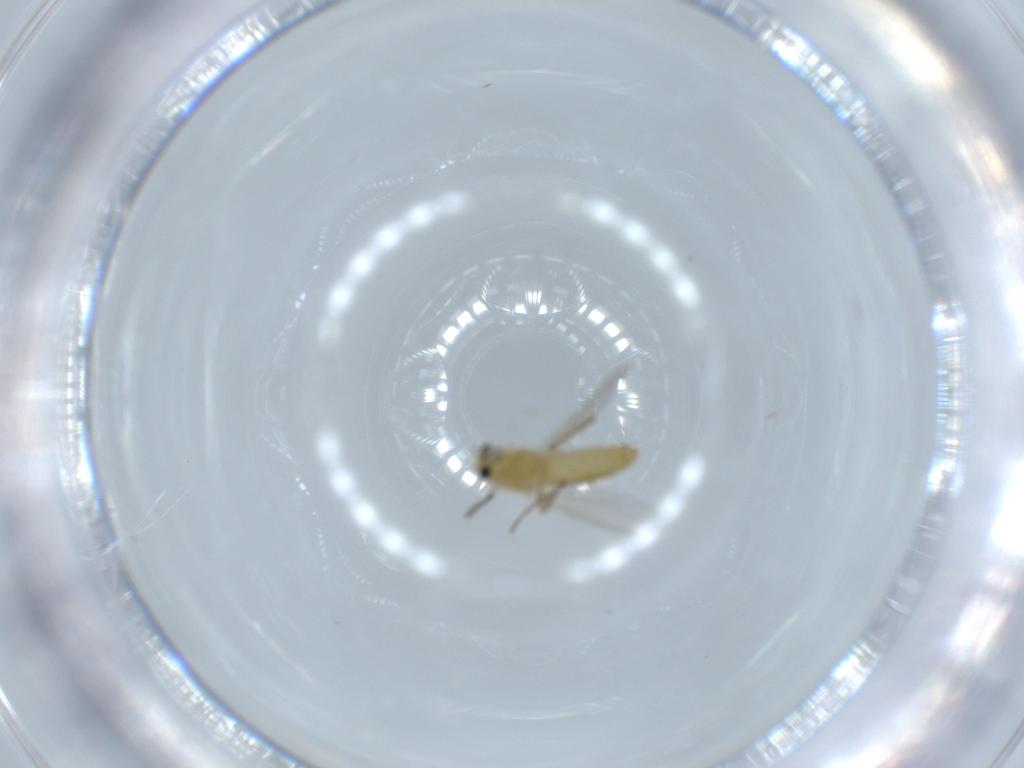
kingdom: Animalia
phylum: Arthropoda
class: Insecta
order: Diptera
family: Chironomidae
